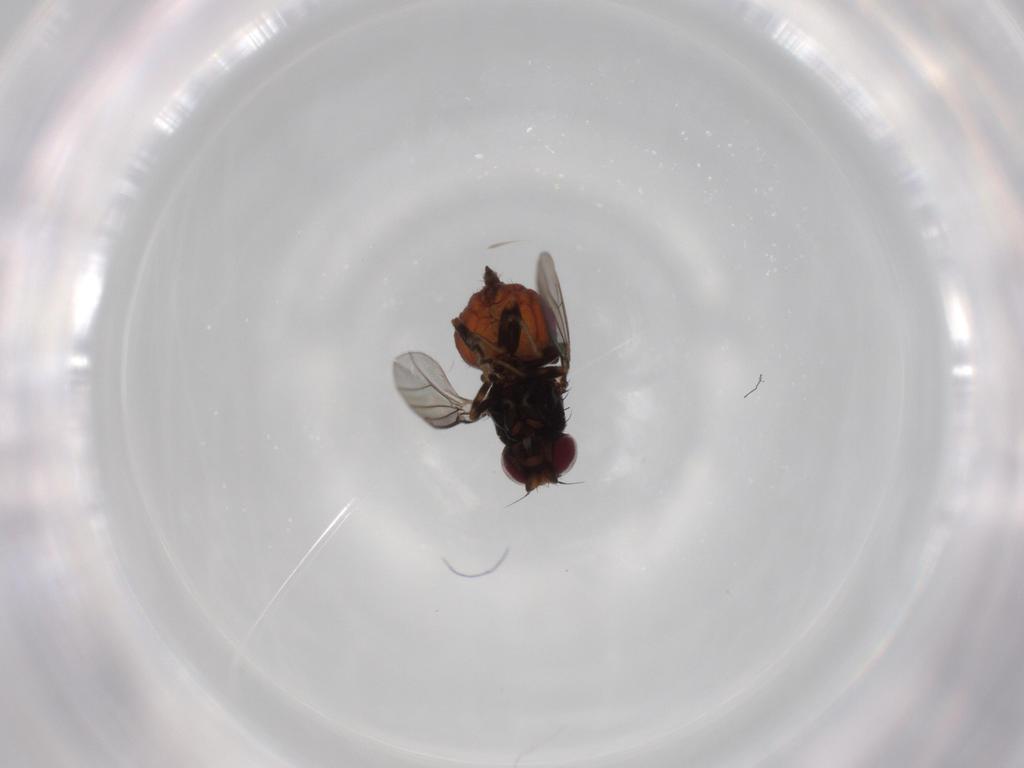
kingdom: Animalia
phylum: Arthropoda
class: Insecta
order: Diptera
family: Chloropidae
